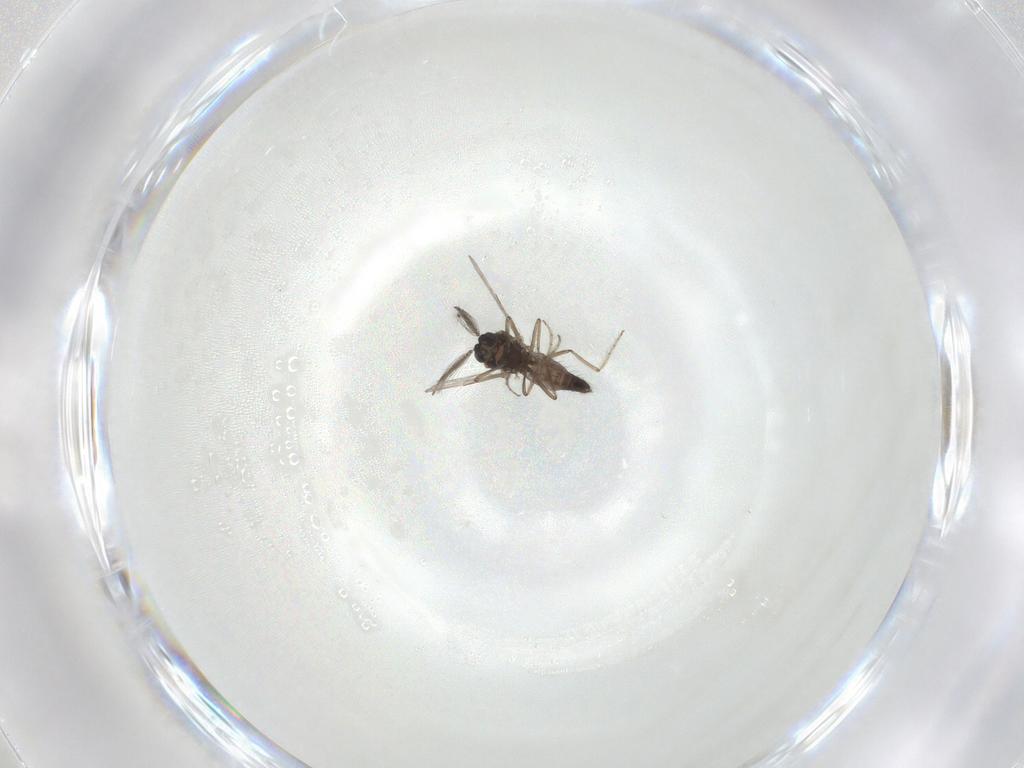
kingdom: Animalia
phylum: Arthropoda
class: Insecta
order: Diptera
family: Ceratopogonidae
